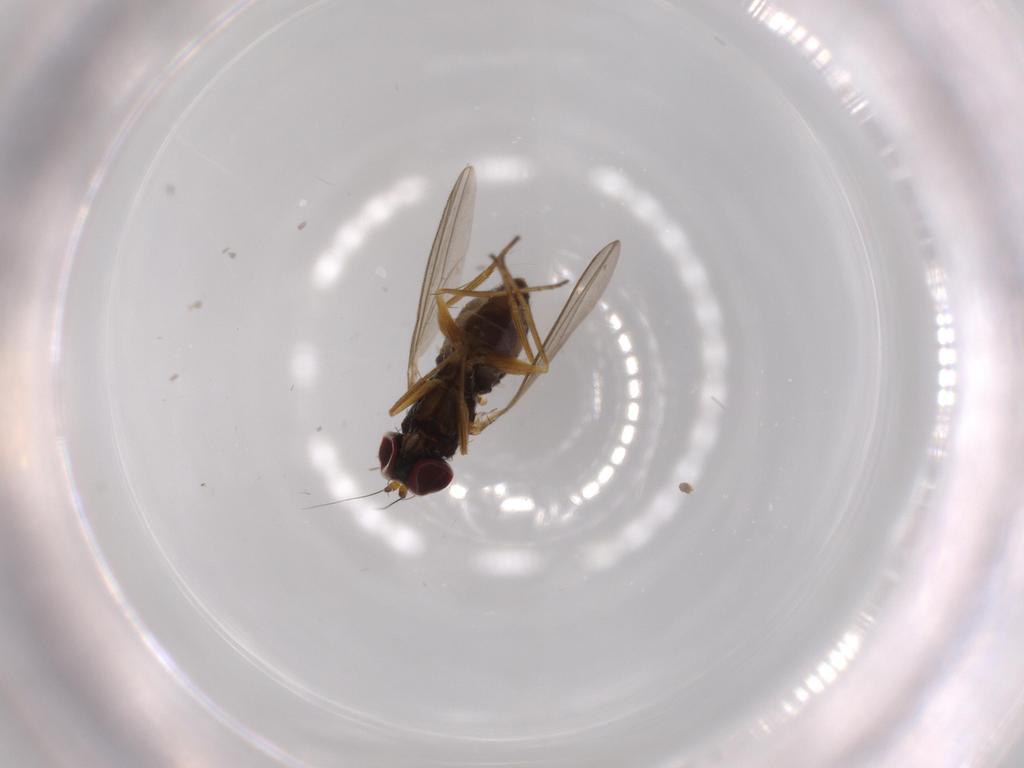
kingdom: Animalia
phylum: Arthropoda
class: Insecta
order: Diptera
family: Dolichopodidae
